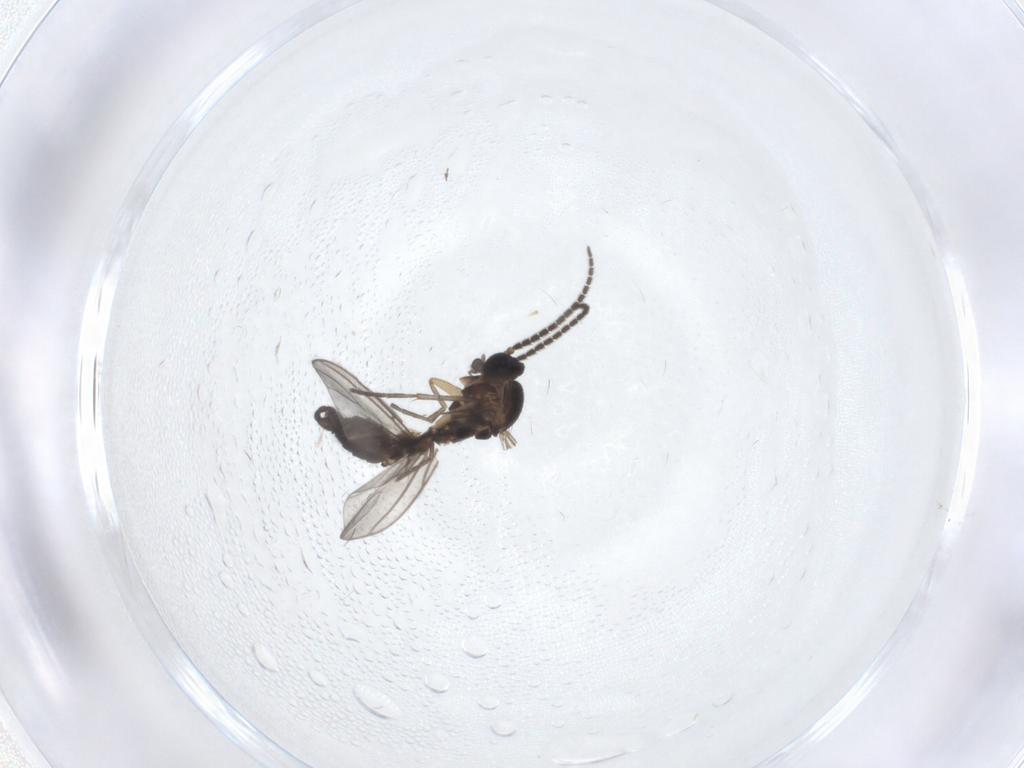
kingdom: Animalia
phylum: Arthropoda
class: Insecta
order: Diptera
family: Sciaridae
